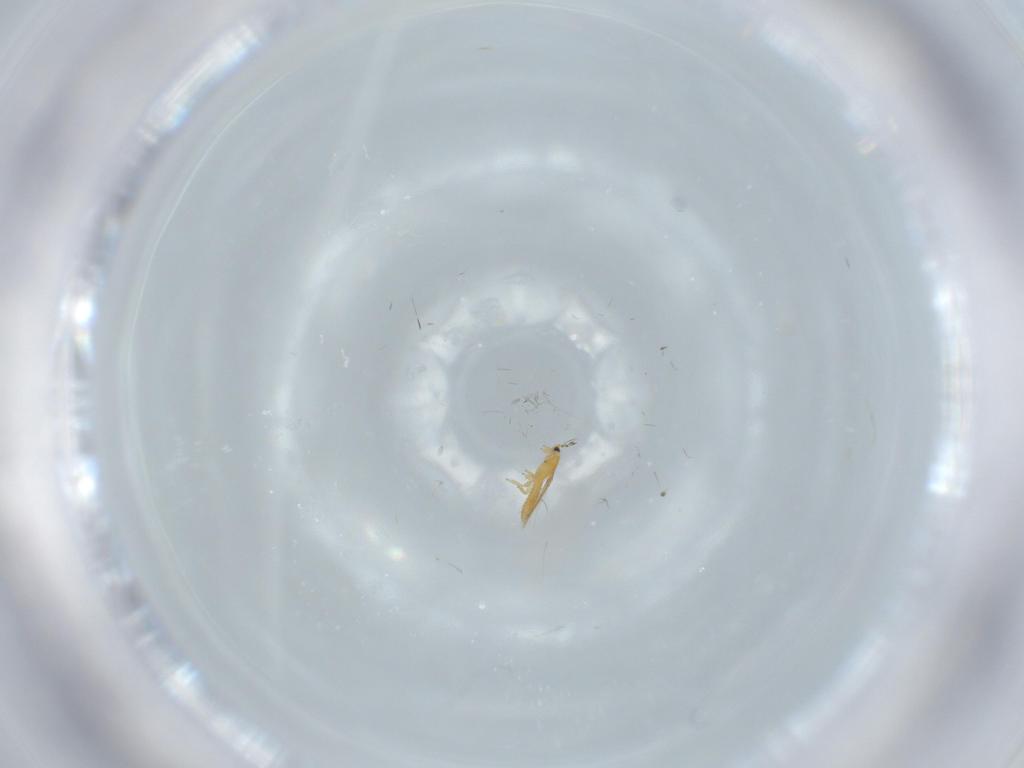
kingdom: Animalia
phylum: Arthropoda
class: Insecta
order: Thysanoptera
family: Thripidae
